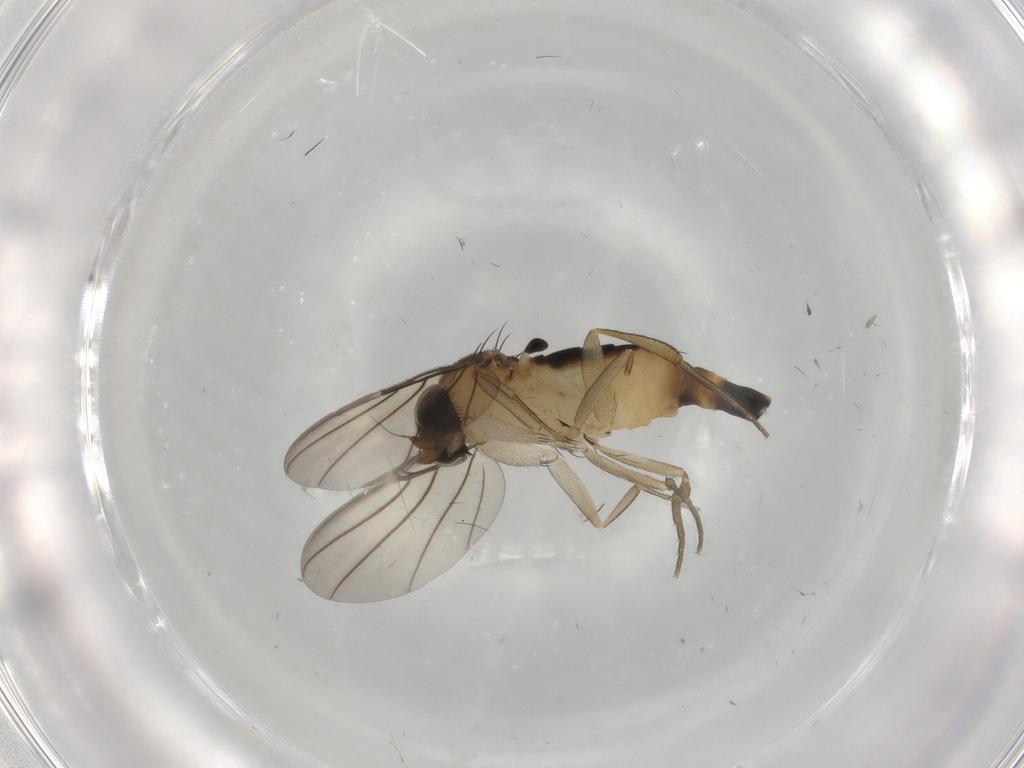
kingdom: Animalia
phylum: Arthropoda
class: Insecta
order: Diptera
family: Phoridae
